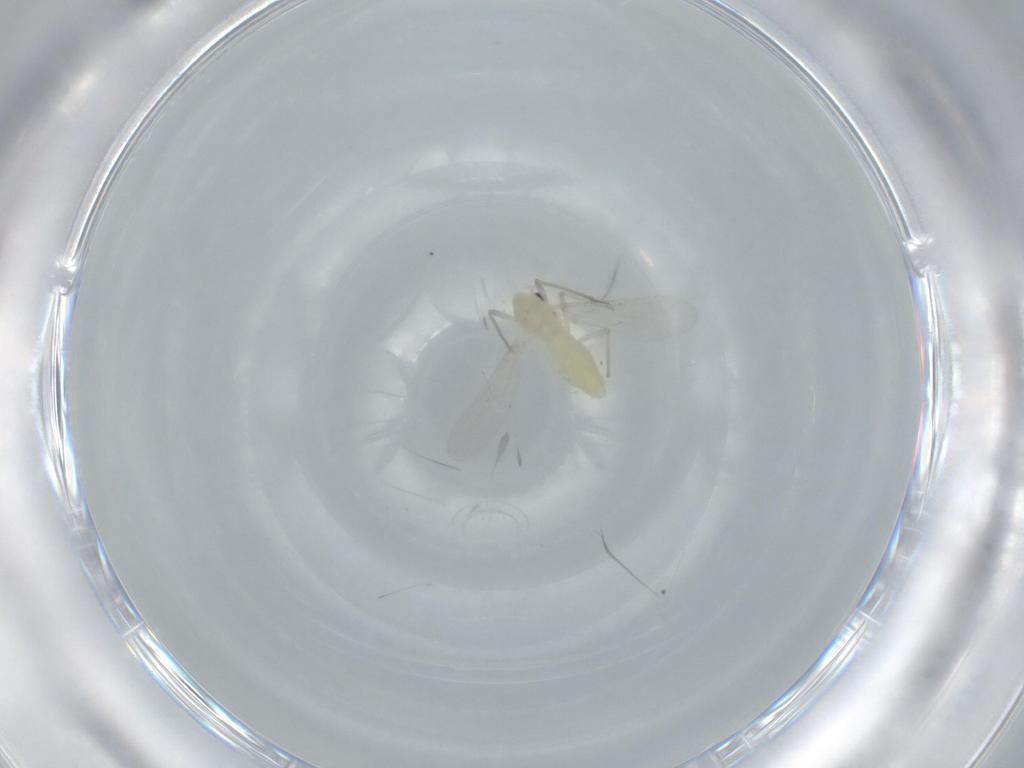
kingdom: Animalia
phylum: Arthropoda
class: Insecta
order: Diptera
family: Chironomidae
